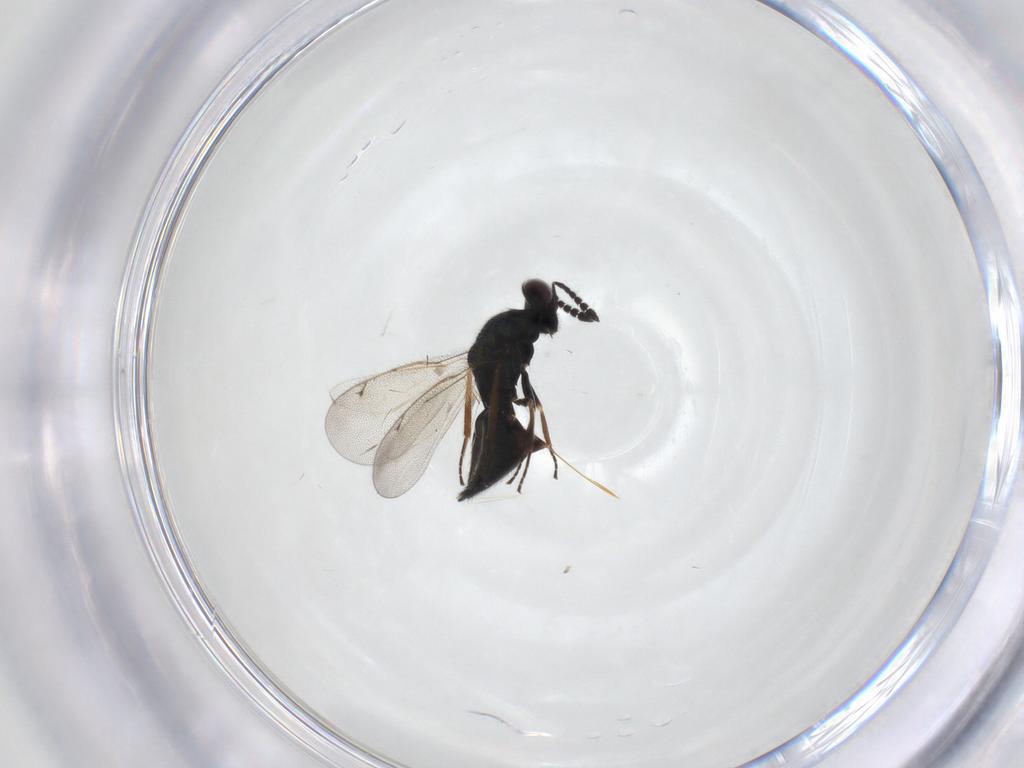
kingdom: Animalia
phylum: Arthropoda
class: Insecta
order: Hymenoptera
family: Eulophidae
